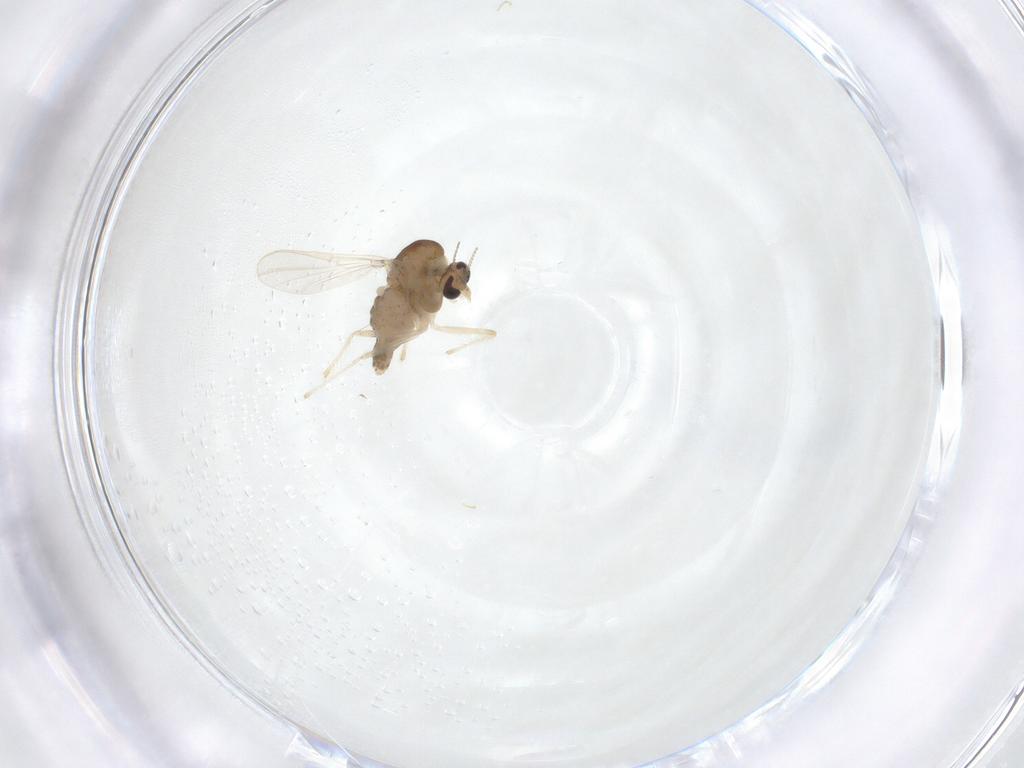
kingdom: Animalia
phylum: Arthropoda
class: Insecta
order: Diptera
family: Chironomidae
